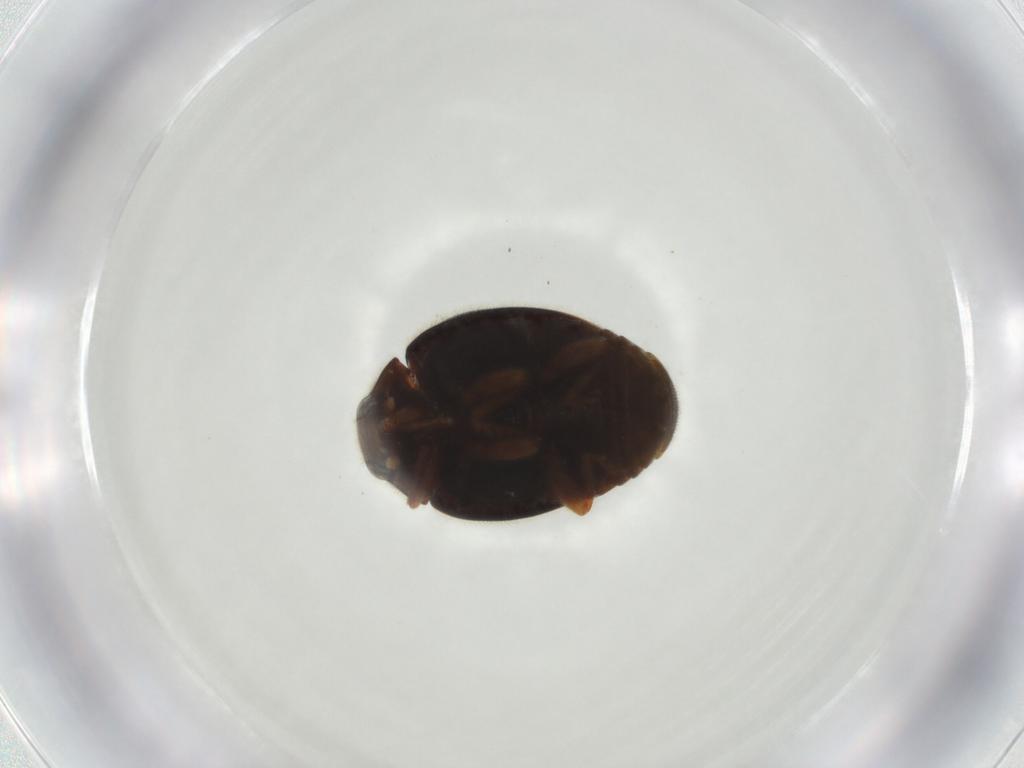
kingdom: Animalia
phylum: Arthropoda
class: Insecta
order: Coleoptera
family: Coccinellidae
